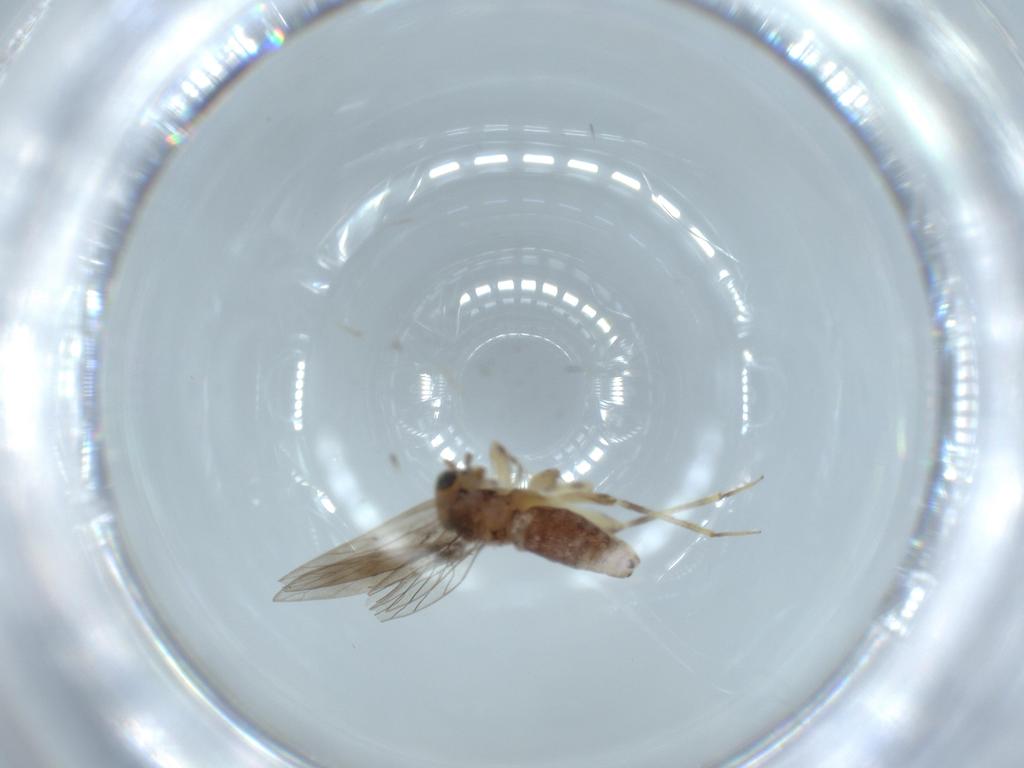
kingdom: Animalia
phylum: Arthropoda
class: Insecta
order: Psocodea
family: Lepidopsocidae
